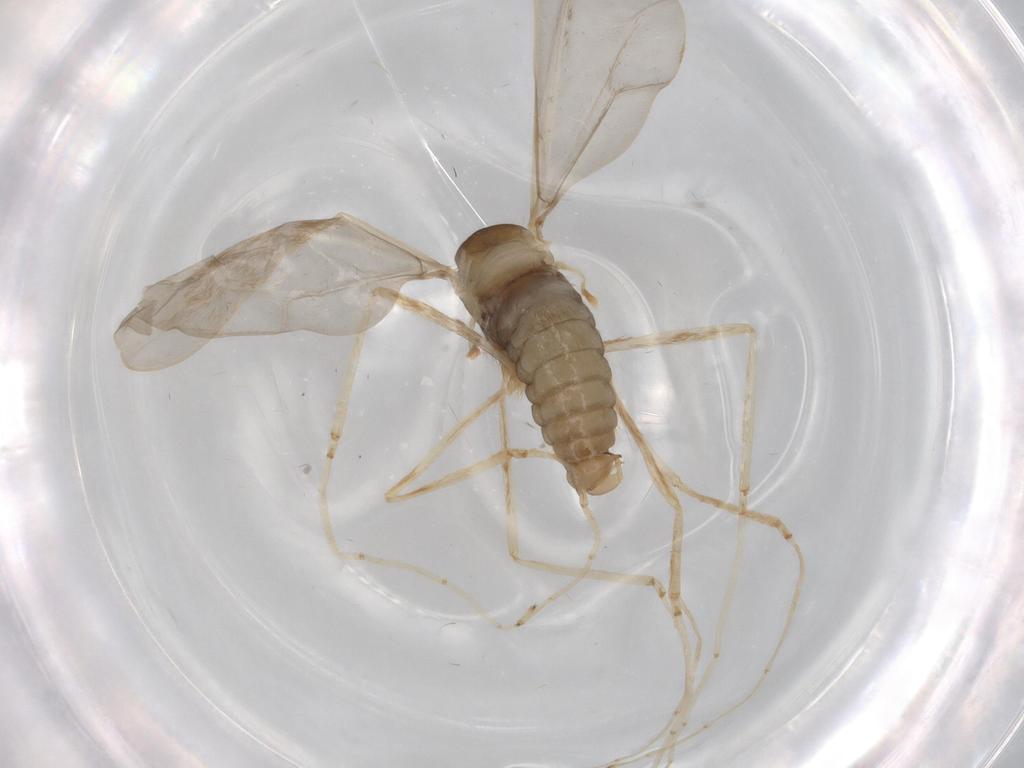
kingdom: Animalia
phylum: Arthropoda
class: Insecta
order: Diptera
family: Cecidomyiidae
